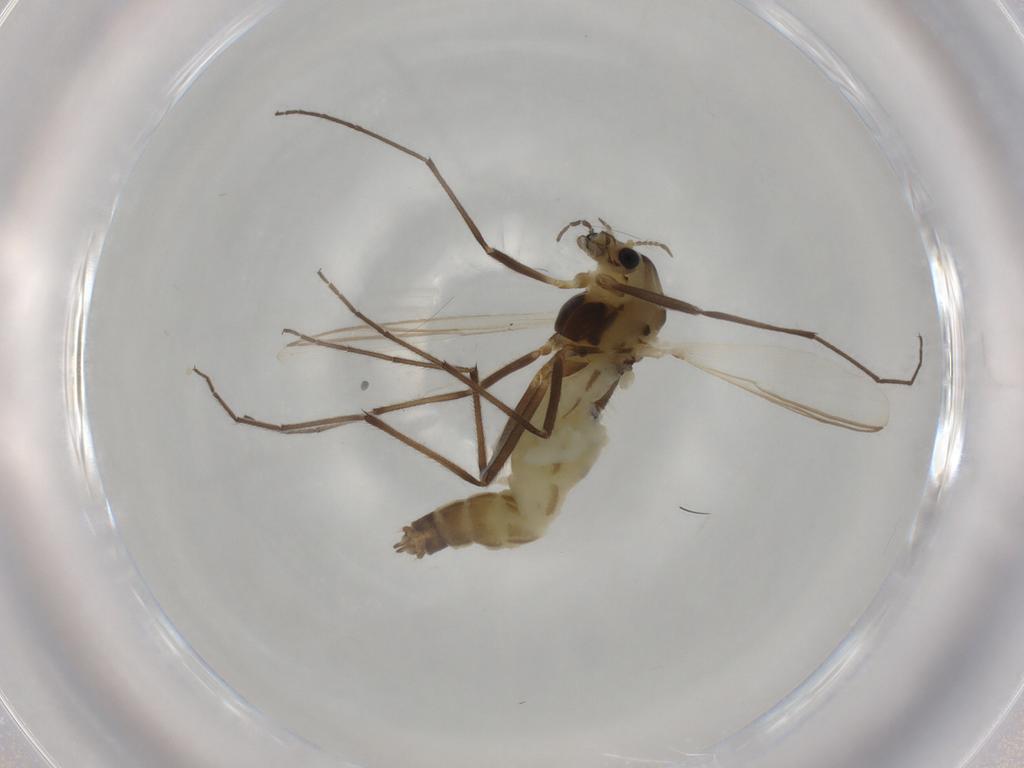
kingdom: Animalia
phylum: Arthropoda
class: Insecta
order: Diptera
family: Chironomidae
